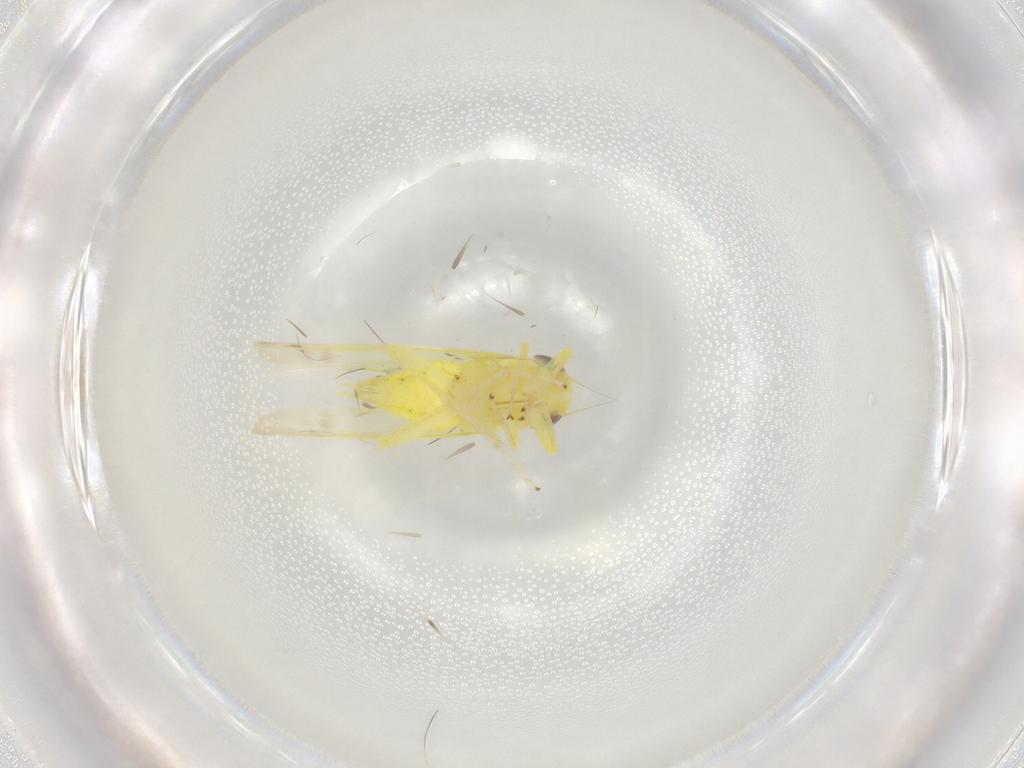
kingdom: Animalia
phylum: Arthropoda
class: Insecta
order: Hemiptera
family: Cicadellidae
